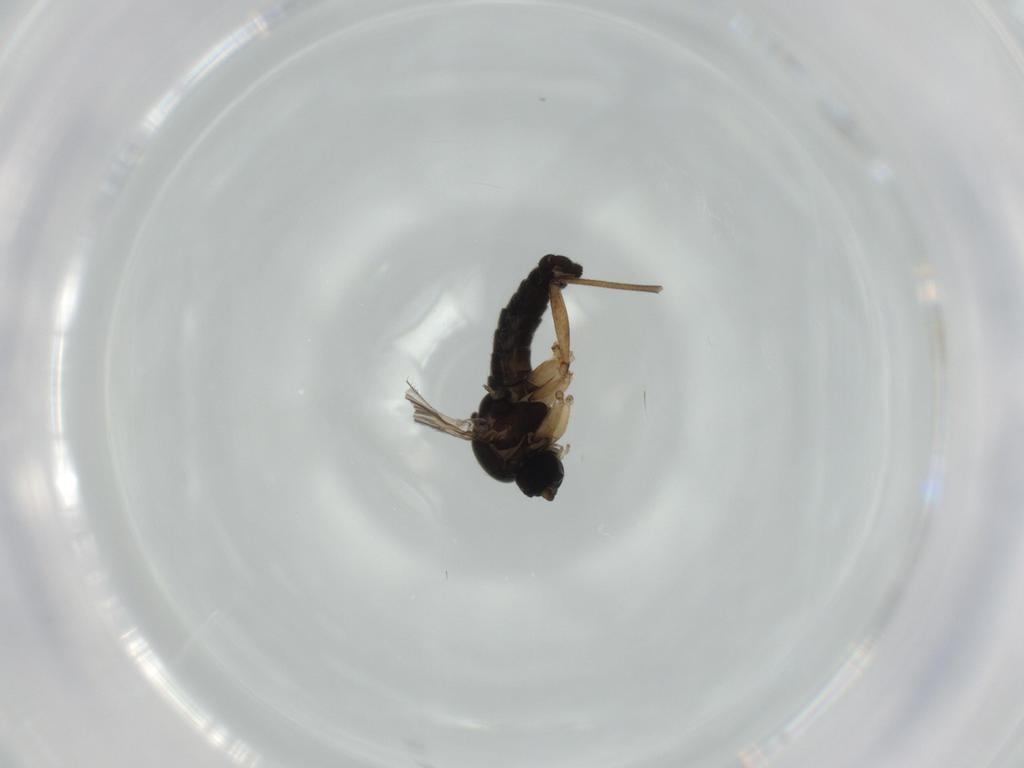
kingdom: Animalia
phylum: Arthropoda
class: Insecta
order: Diptera
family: Sciaridae
